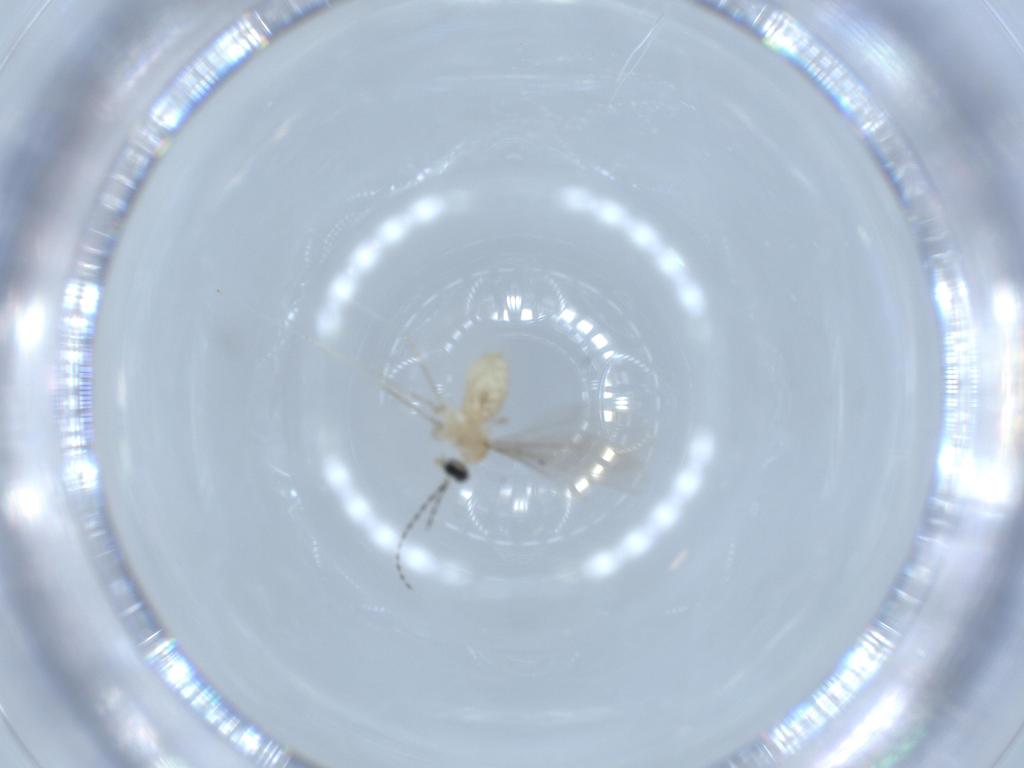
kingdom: Animalia
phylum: Arthropoda
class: Insecta
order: Diptera
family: Cecidomyiidae
